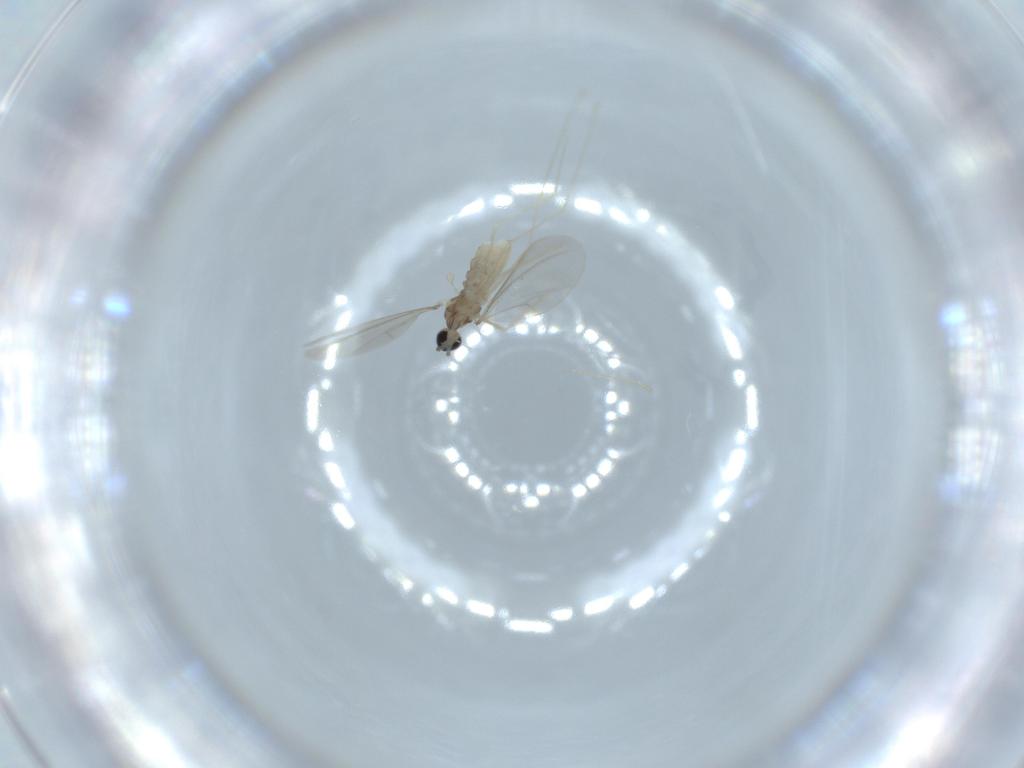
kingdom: Animalia
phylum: Arthropoda
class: Insecta
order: Diptera
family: Cecidomyiidae
